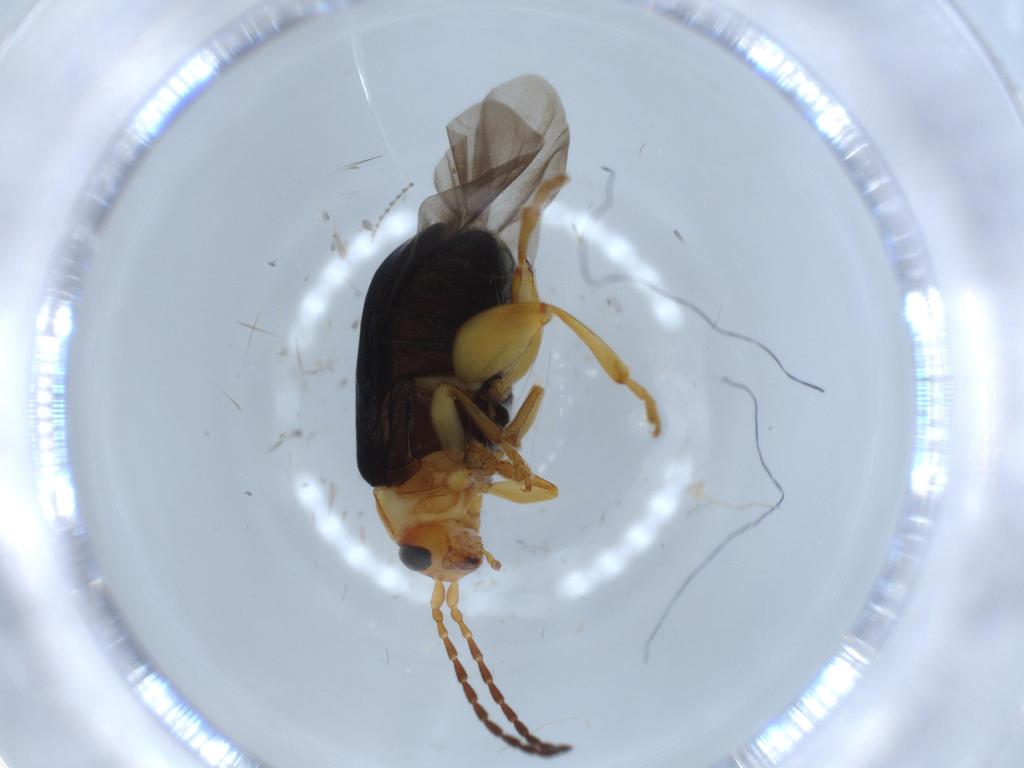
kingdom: Animalia
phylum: Arthropoda
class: Insecta
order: Coleoptera
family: Chrysomelidae
